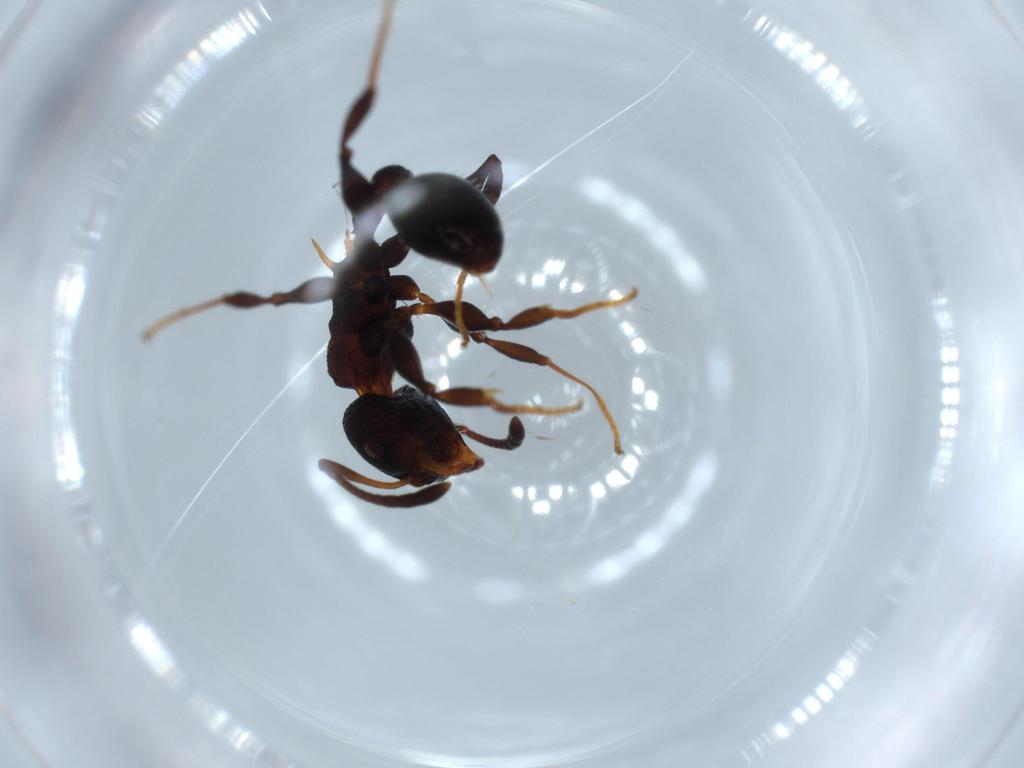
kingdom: Animalia
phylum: Arthropoda
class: Insecta
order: Hymenoptera
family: Formicidae
